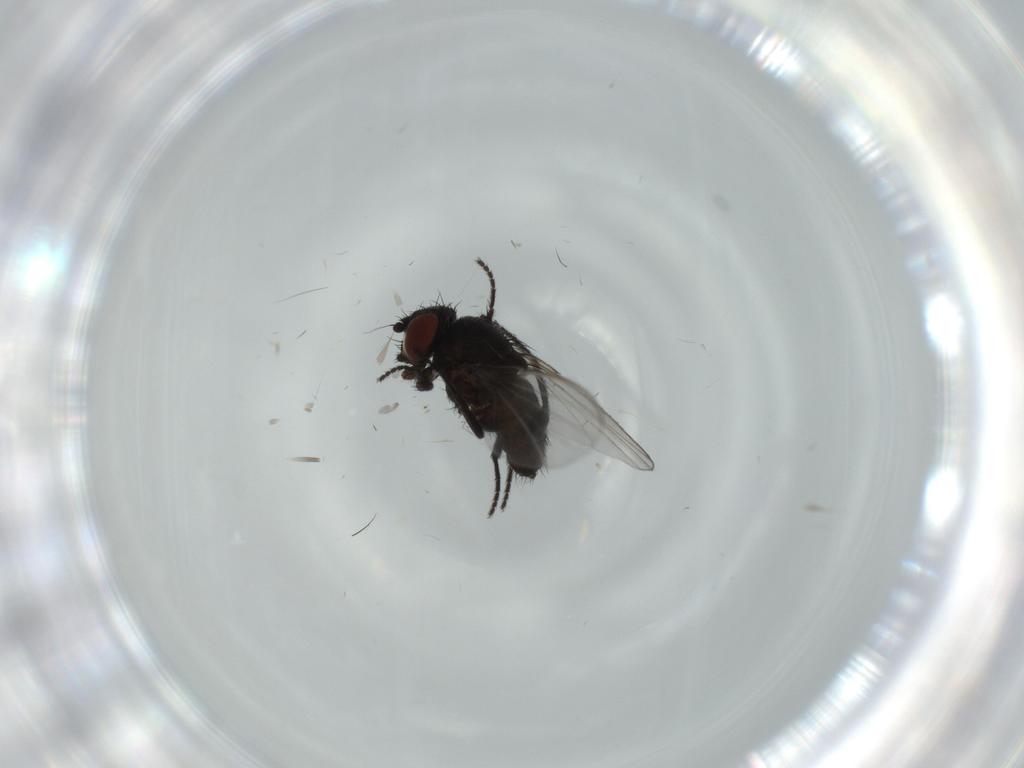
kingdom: Animalia
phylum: Arthropoda
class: Insecta
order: Diptera
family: Milichiidae
